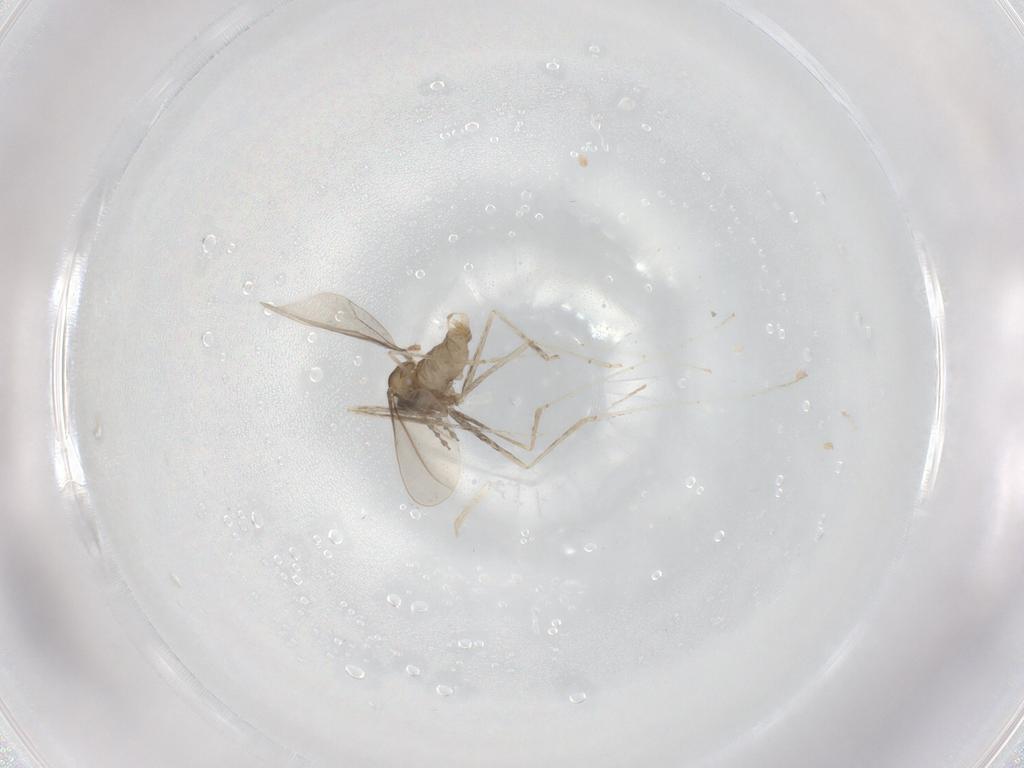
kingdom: Animalia
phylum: Arthropoda
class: Insecta
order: Diptera
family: Cecidomyiidae
